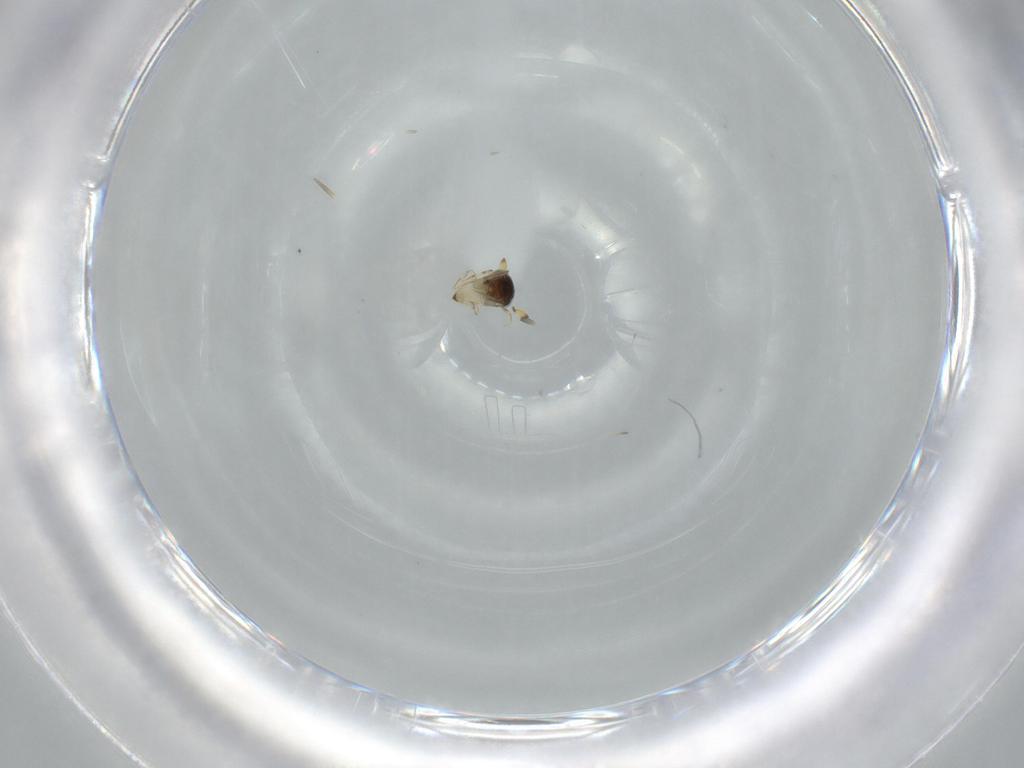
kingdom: Animalia
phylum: Arthropoda
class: Insecta
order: Hymenoptera
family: Scelionidae
